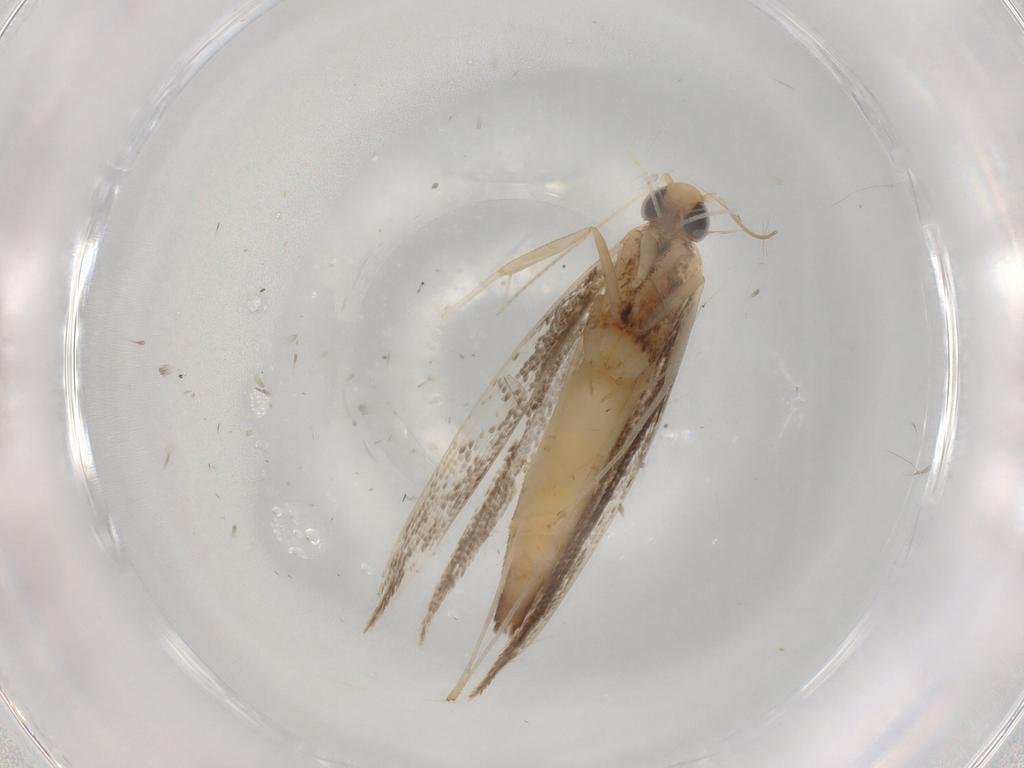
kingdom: Animalia
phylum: Arthropoda
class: Insecta
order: Lepidoptera
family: Gracillariidae
